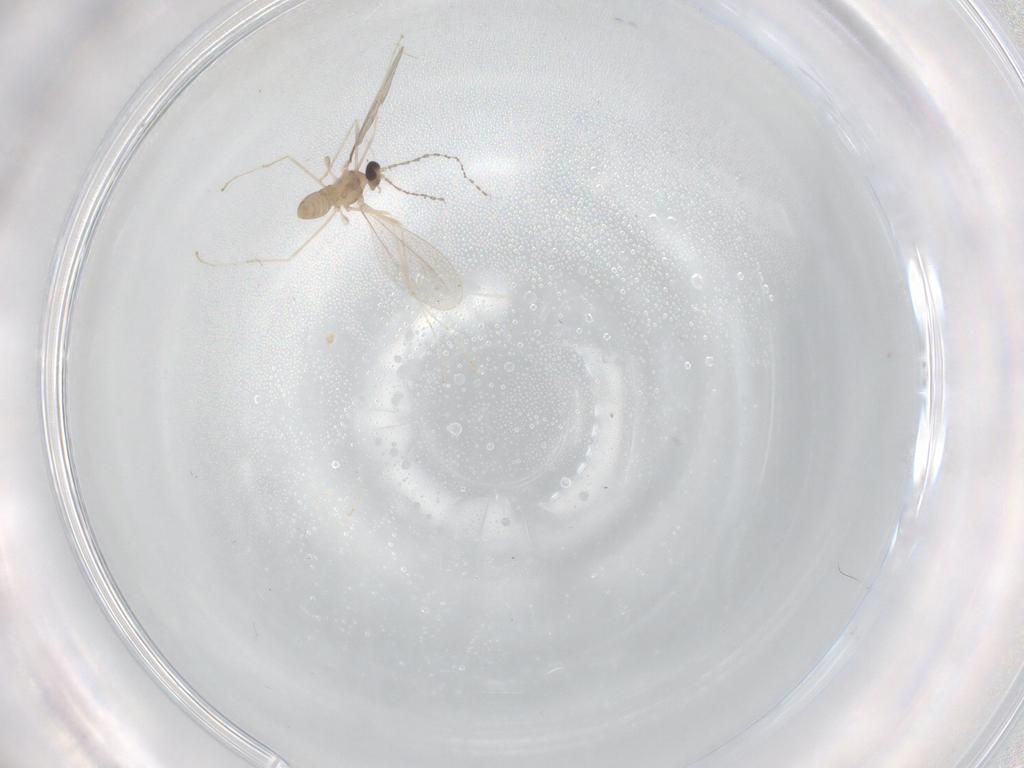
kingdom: Animalia
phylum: Arthropoda
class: Insecta
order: Diptera
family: Cecidomyiidae
